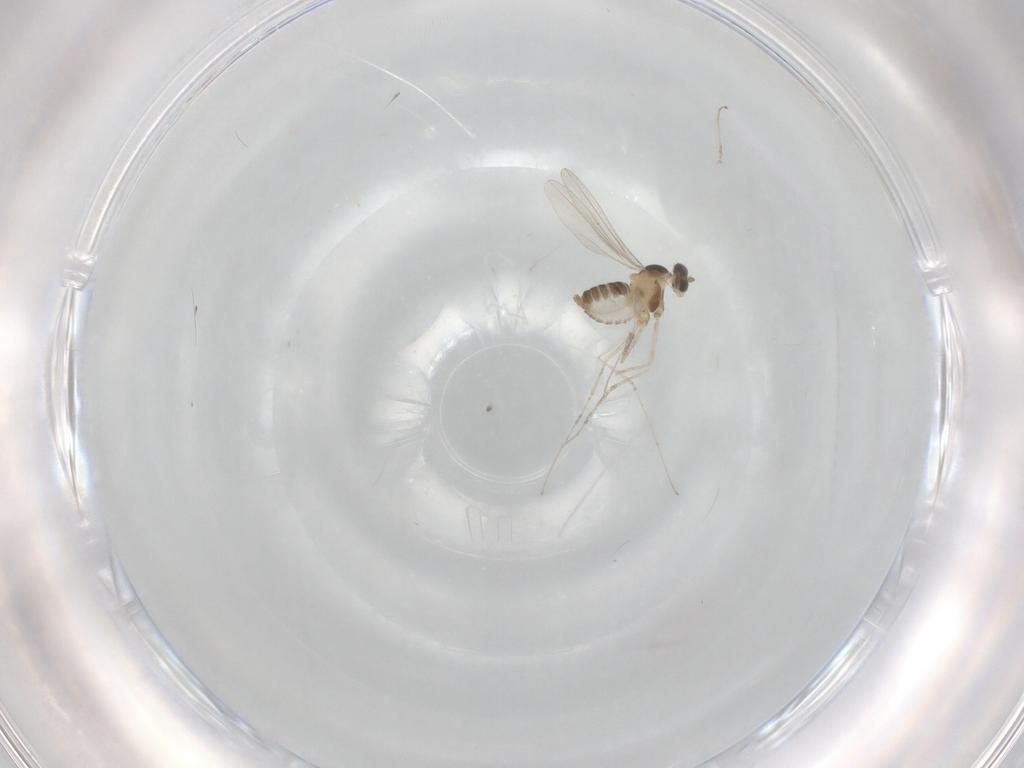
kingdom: Animalia
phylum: Arthropoda
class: Insecta
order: Diptera
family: Cecidomyiidae
